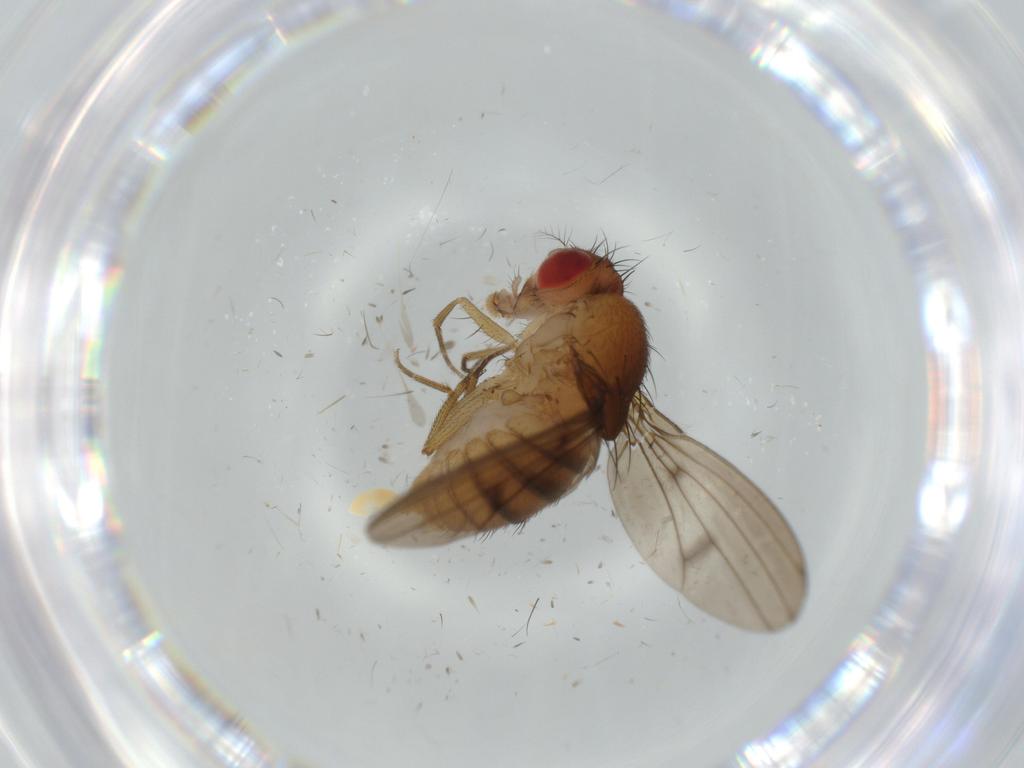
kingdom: Animalia
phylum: Arthropoda
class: Insecta
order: Diptera
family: Drosophilidae
